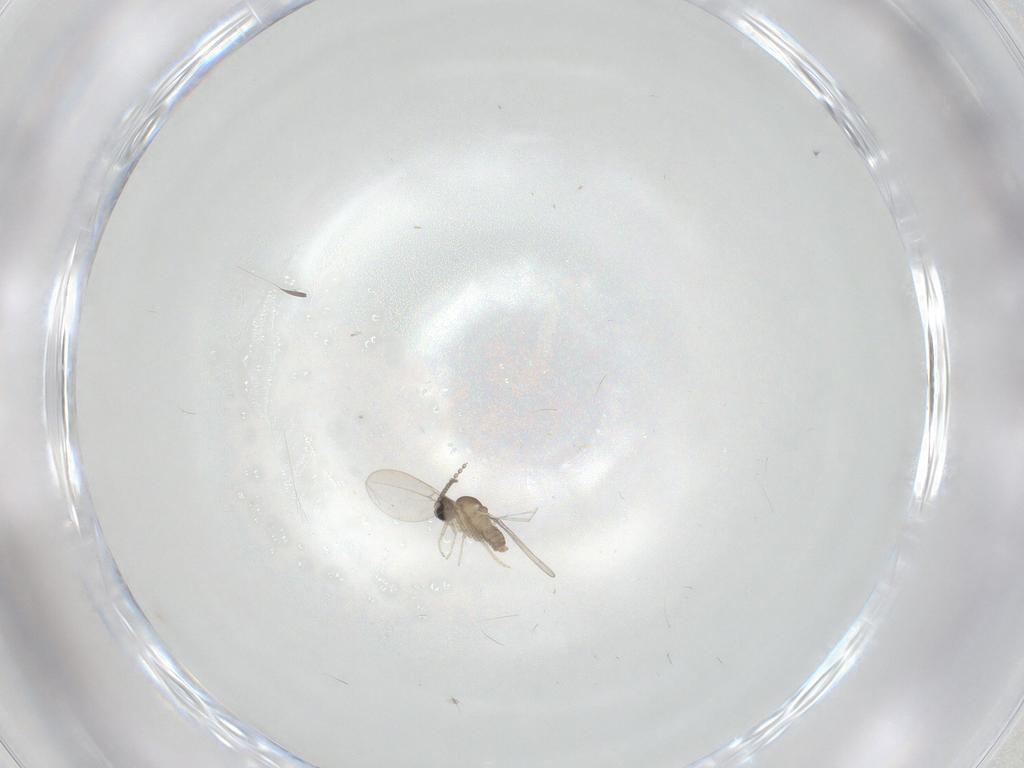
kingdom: Animalia
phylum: Arthropoda
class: Insecta
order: Diptera
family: Cecidomyiidae
